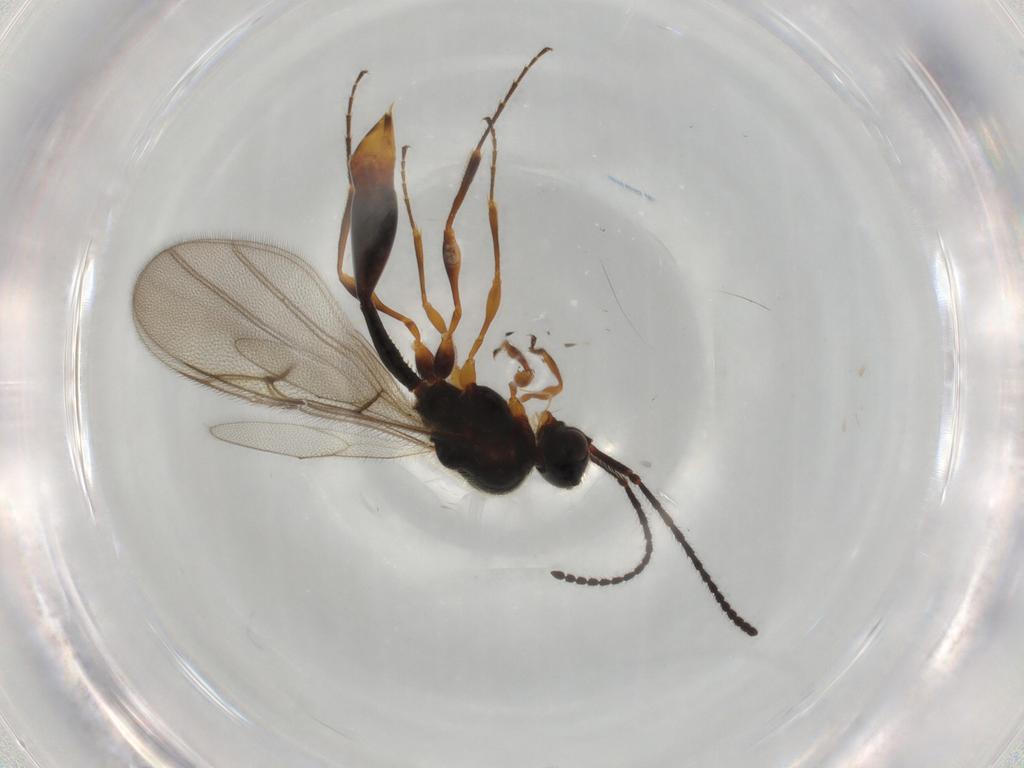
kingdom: Animalia
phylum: Arthropoda
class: Insecta
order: Hymenoptera
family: Diapriidae
